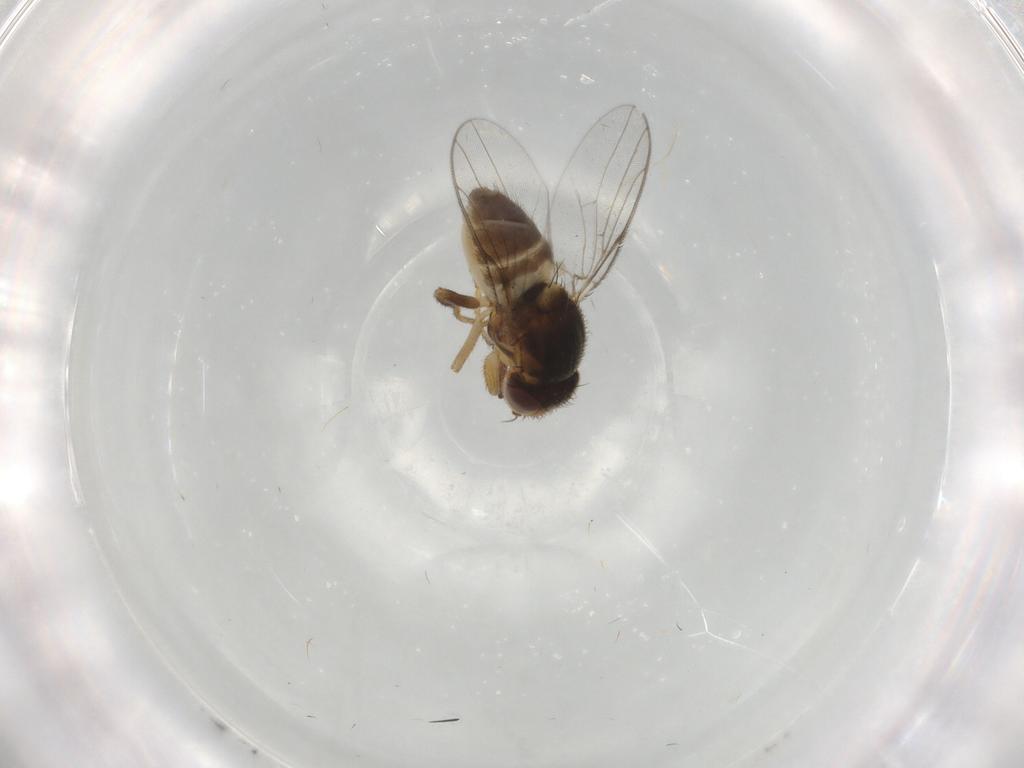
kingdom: Animalia
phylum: Arthropoda
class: Insecta
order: Diptera
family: Chloropidae
